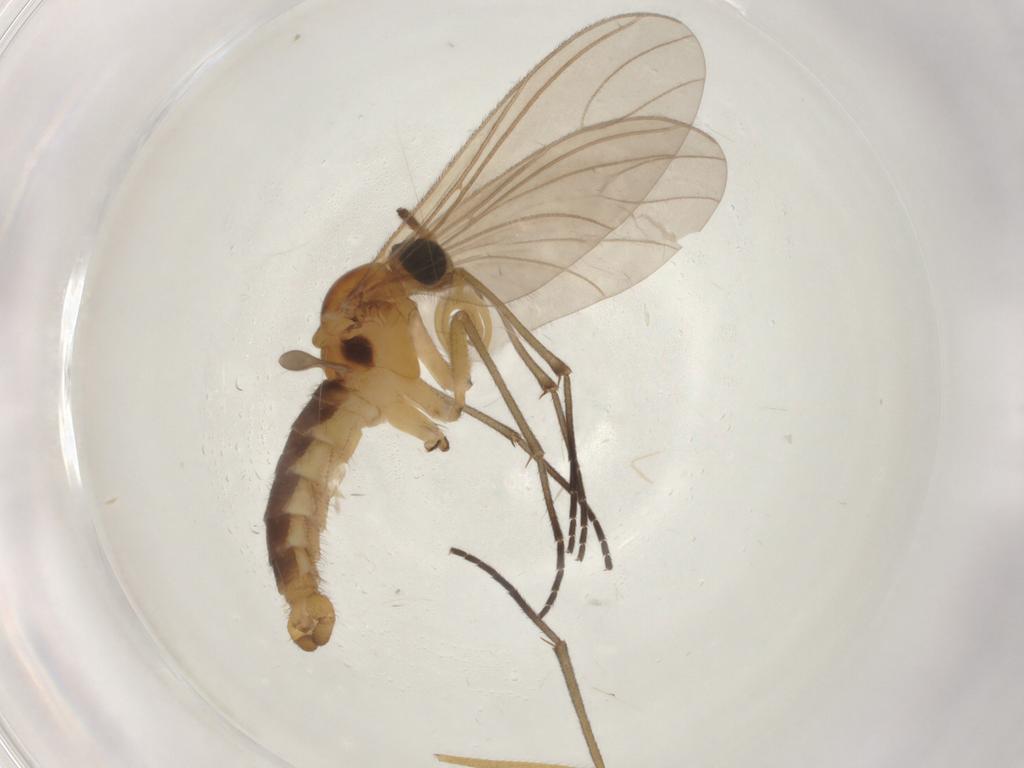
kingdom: Animalia
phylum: Arthropoda
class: Insecta
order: Diptera
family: Sciaridae
